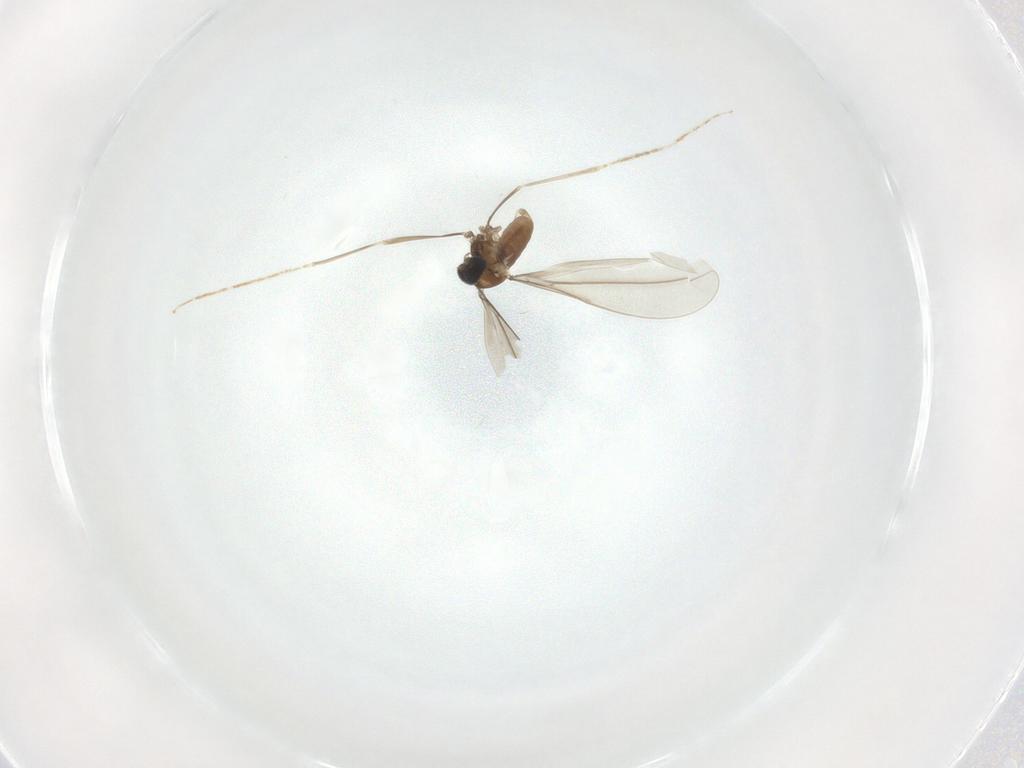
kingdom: Animalia
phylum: Arthropoda
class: Insecta
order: Diptera
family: Cecidomyiidae
